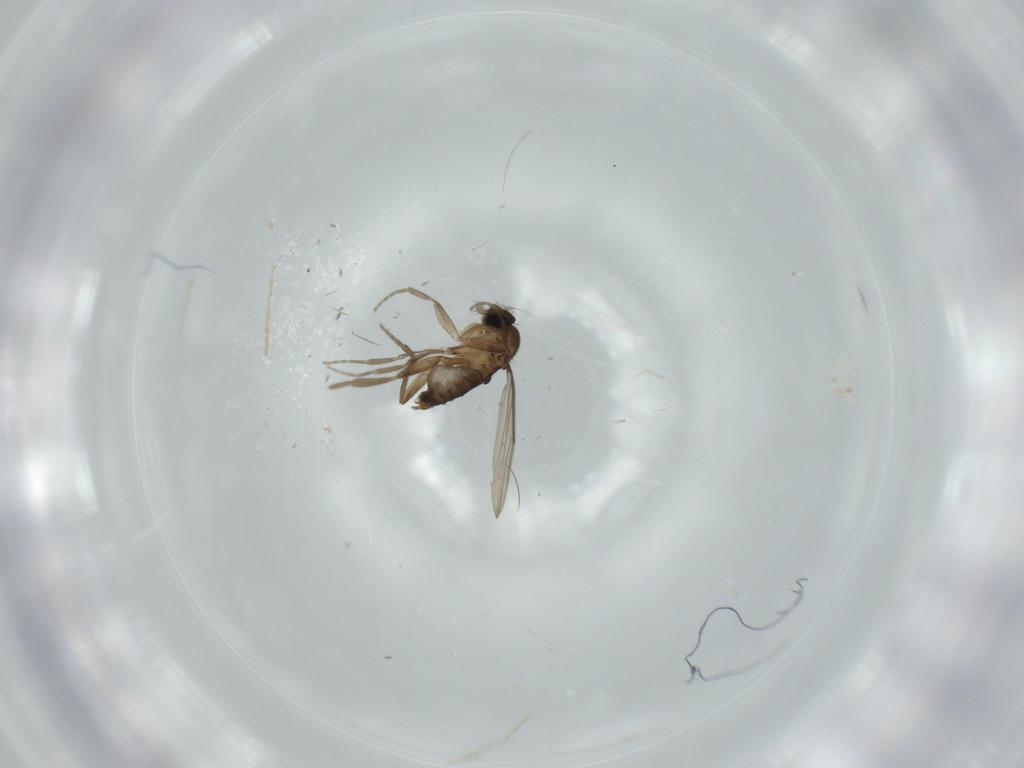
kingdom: Animalia
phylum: Arthropoda
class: Insecta
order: Diptera
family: Phoridae
